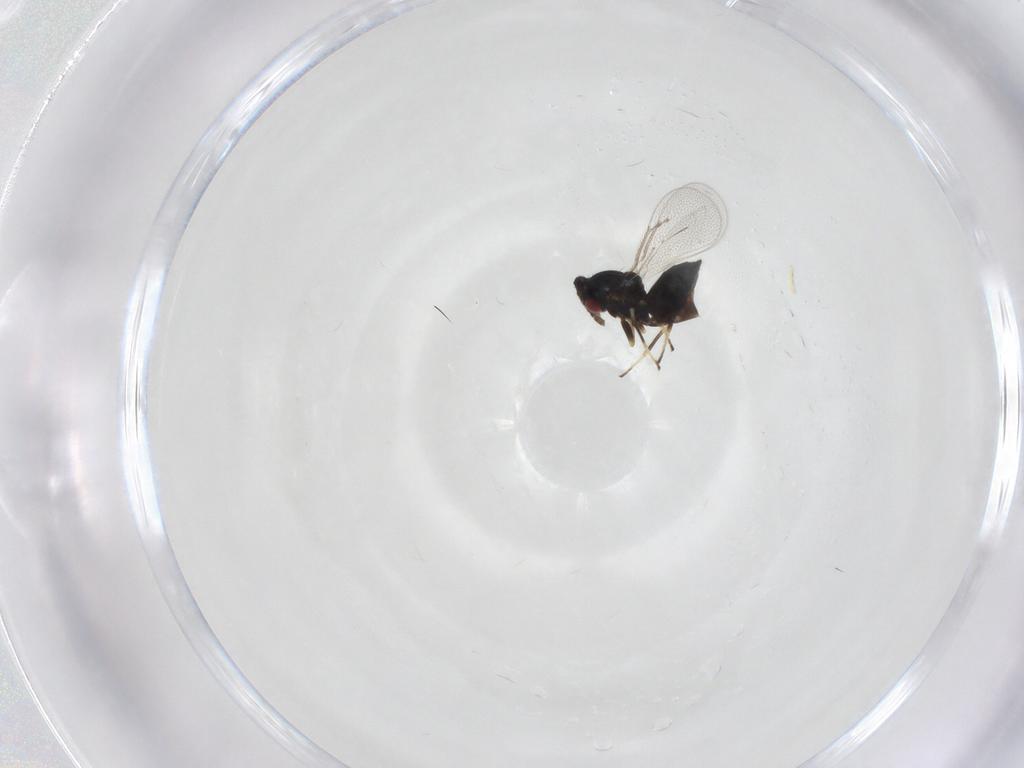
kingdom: Animalia
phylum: Arthropoda
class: Insecta
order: Hymenoptera
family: Eulophidae
